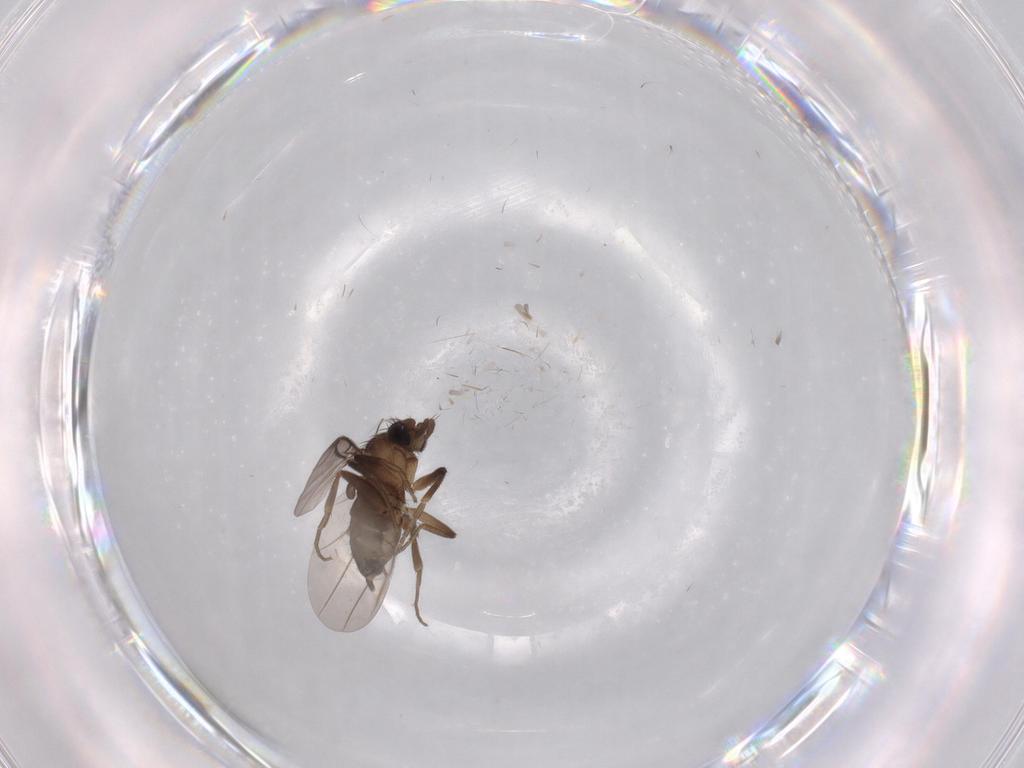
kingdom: Animalia
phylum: Arthropoda
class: Insecta
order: Diptera
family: Phoridae
